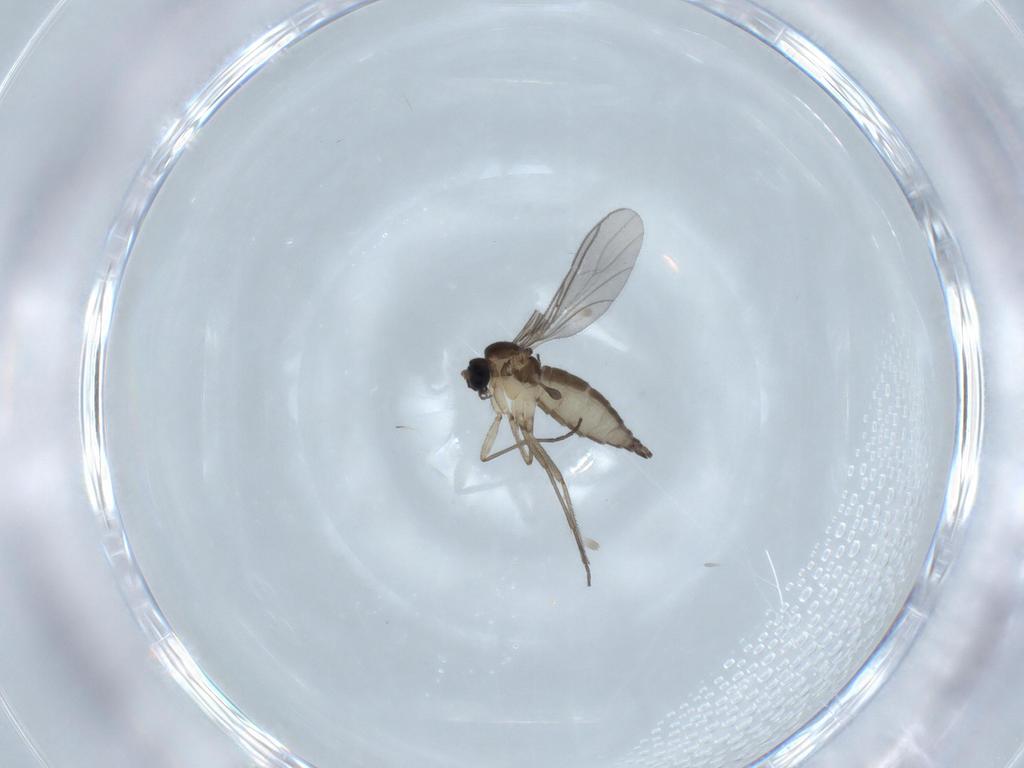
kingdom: Animalia
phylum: Arthropoda
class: Insecta
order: Diptera
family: Sciaridae
